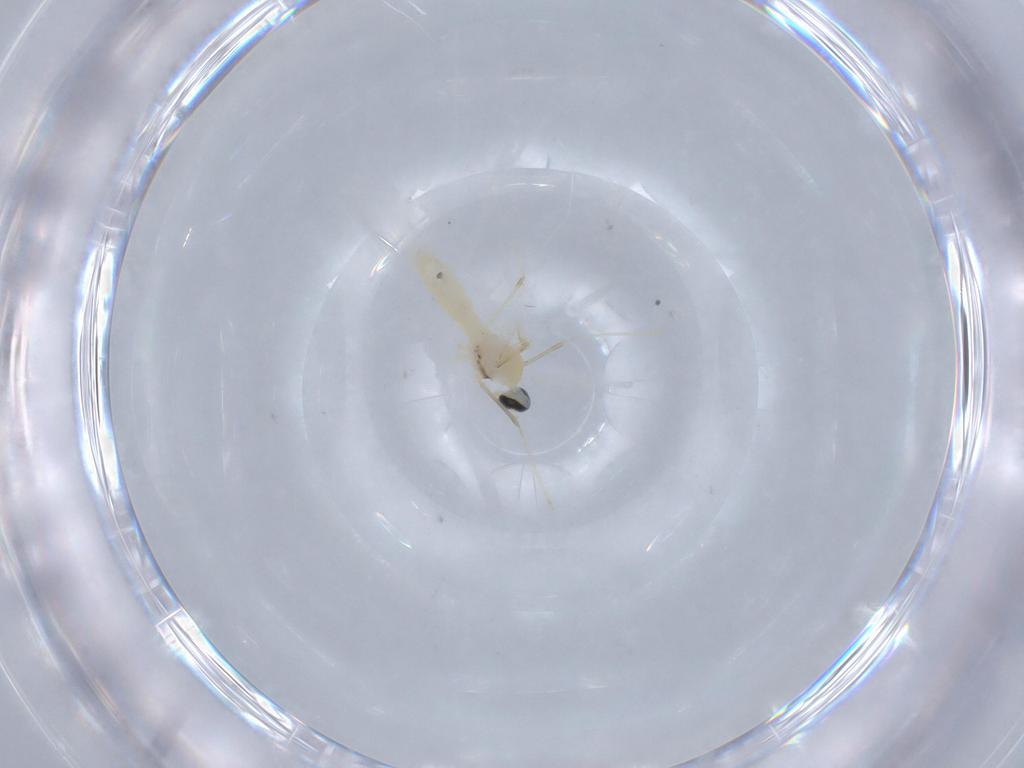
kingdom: Animalia
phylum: Arthropoda
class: Insecta
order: Diptera
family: Cecidomyiidae
